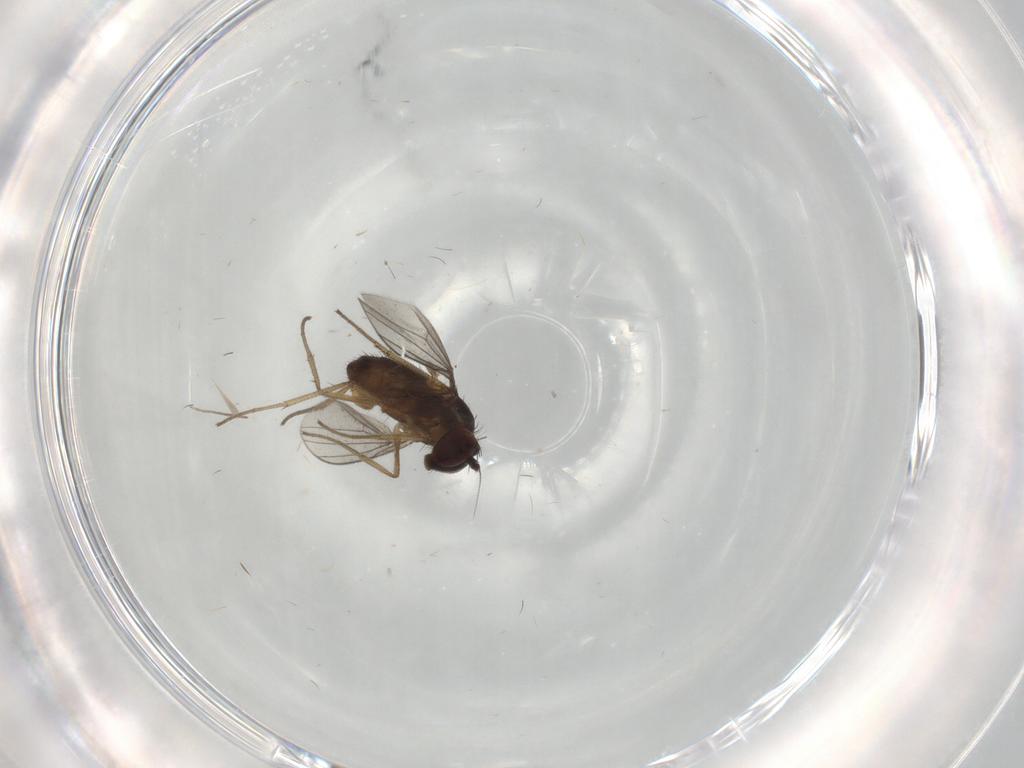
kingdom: Animalia
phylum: Arthropoda
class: Insecta
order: Diptera
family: Dolichopodidae
